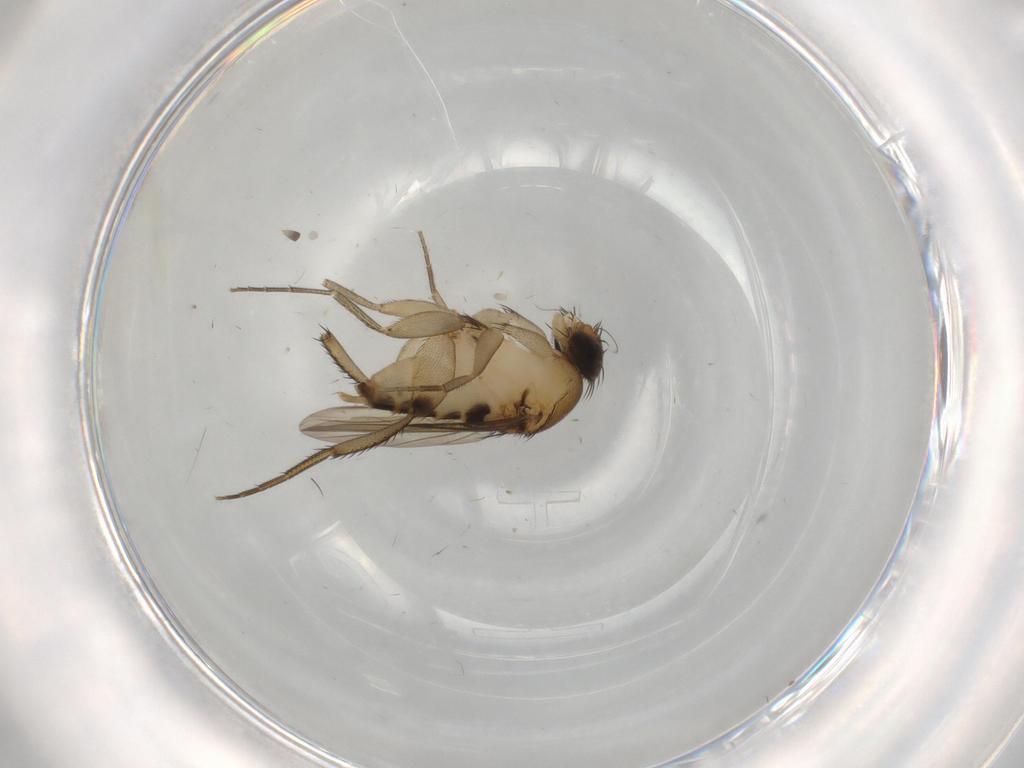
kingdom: Animalia
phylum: Arthropoda
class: Insecta
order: Diptera
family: Phoridae
